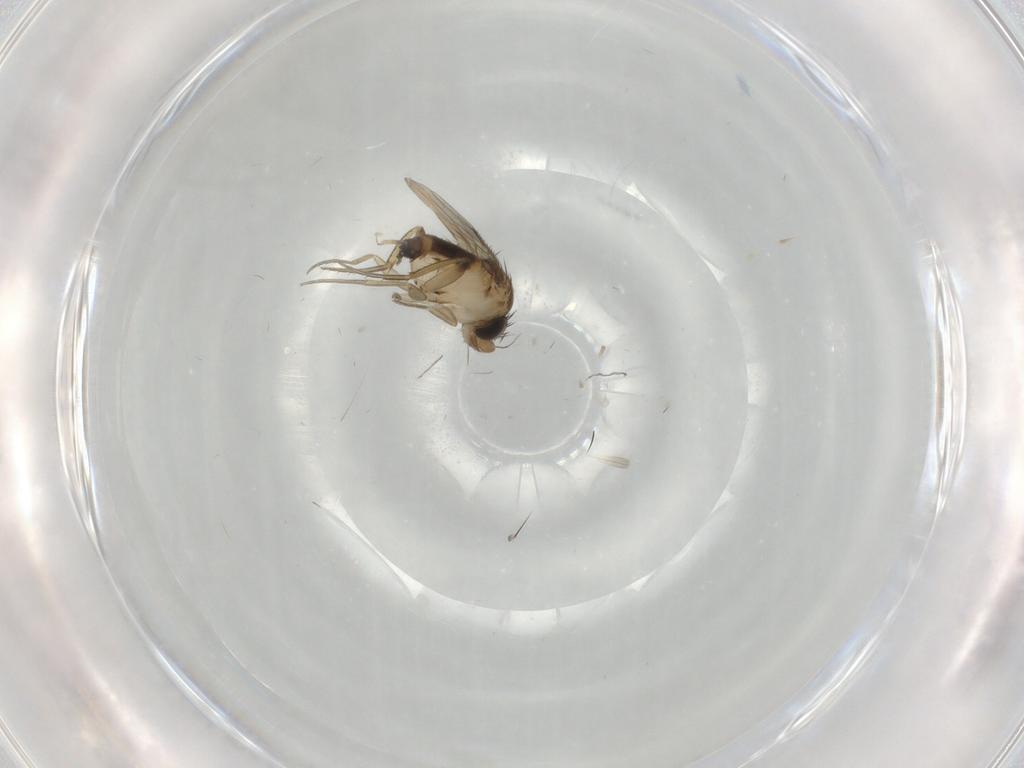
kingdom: Animalia
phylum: Arthropoda
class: Insecta
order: Diptera
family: Phoridae
